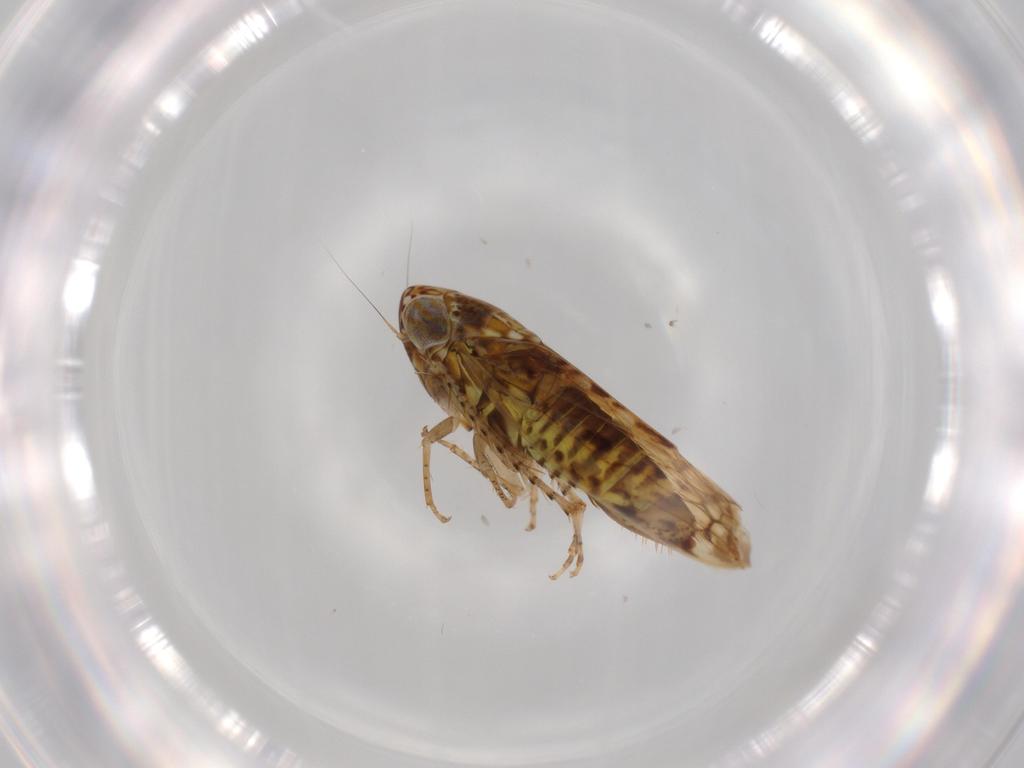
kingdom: Animalia
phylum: Arthropoda
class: Insecta
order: Hemiptera
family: Cicadellidae
